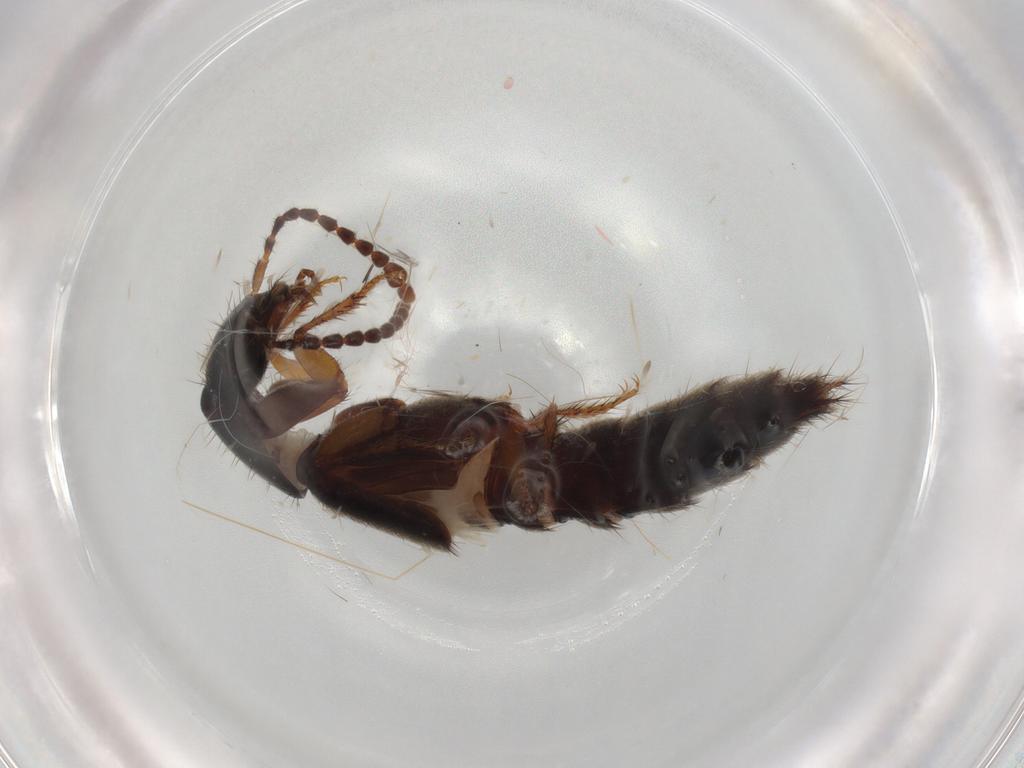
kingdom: Animalia
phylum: Arthropoda
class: Insecta
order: Coleoptera
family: Staphylinidae
